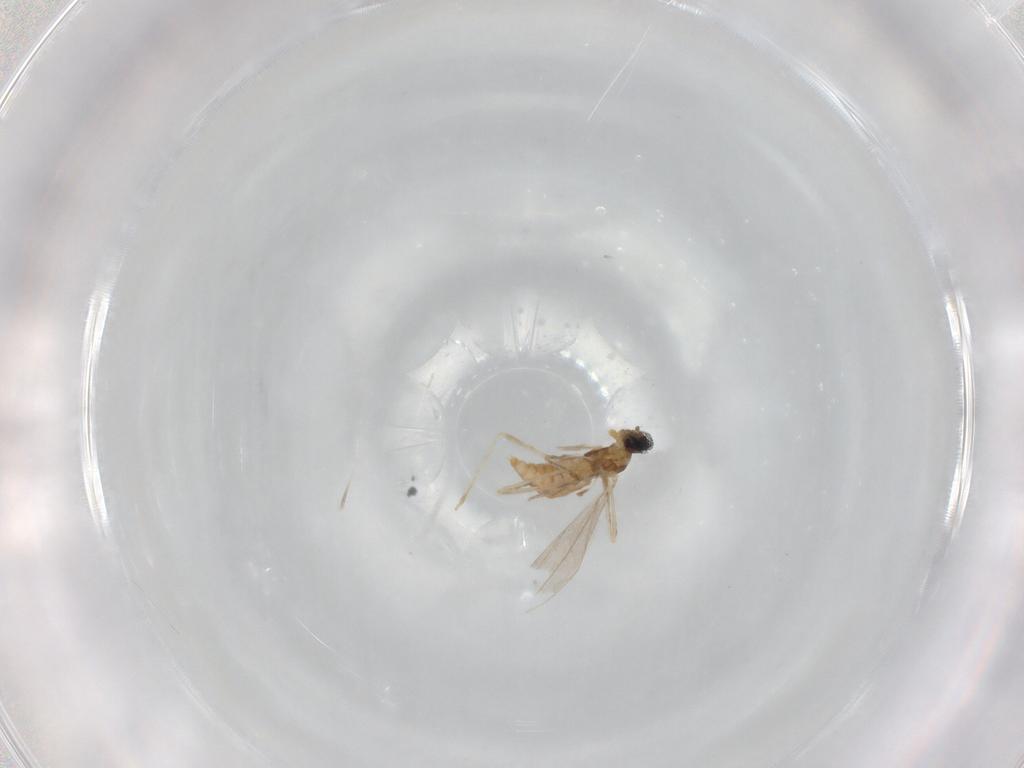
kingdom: Animalia
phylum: Arthropoda
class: Insecta
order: Diptera
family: Cecidomyiidae
